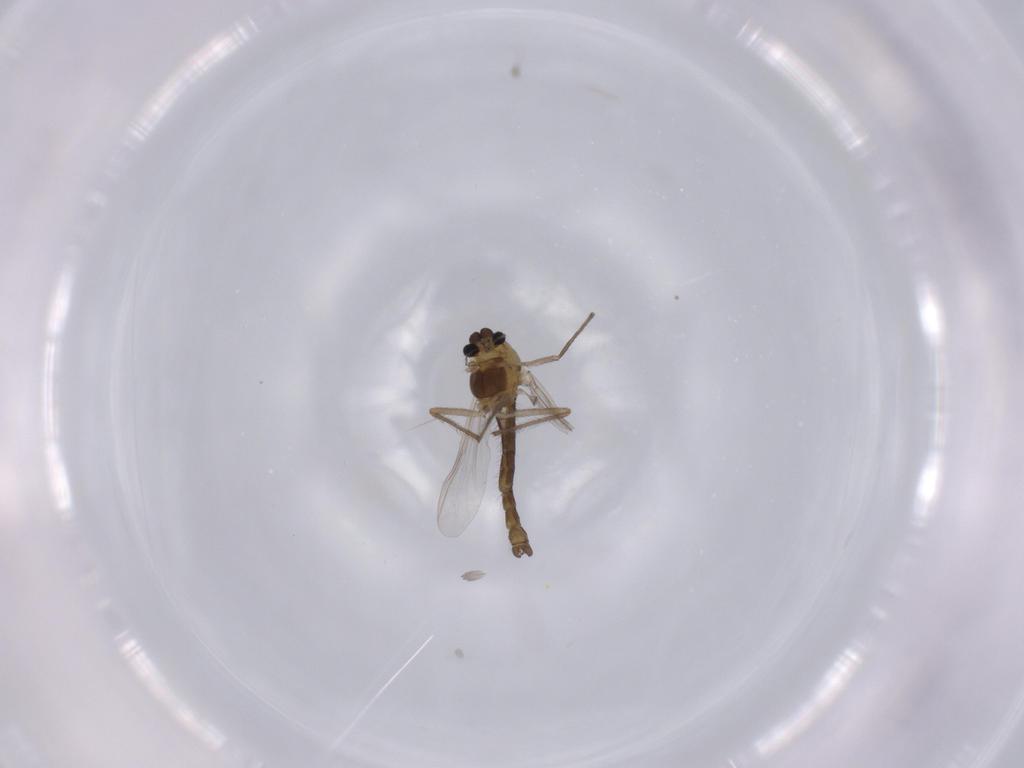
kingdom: Animalia
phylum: Arthropoda
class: Insecta
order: Diptera
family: Chironomidae
